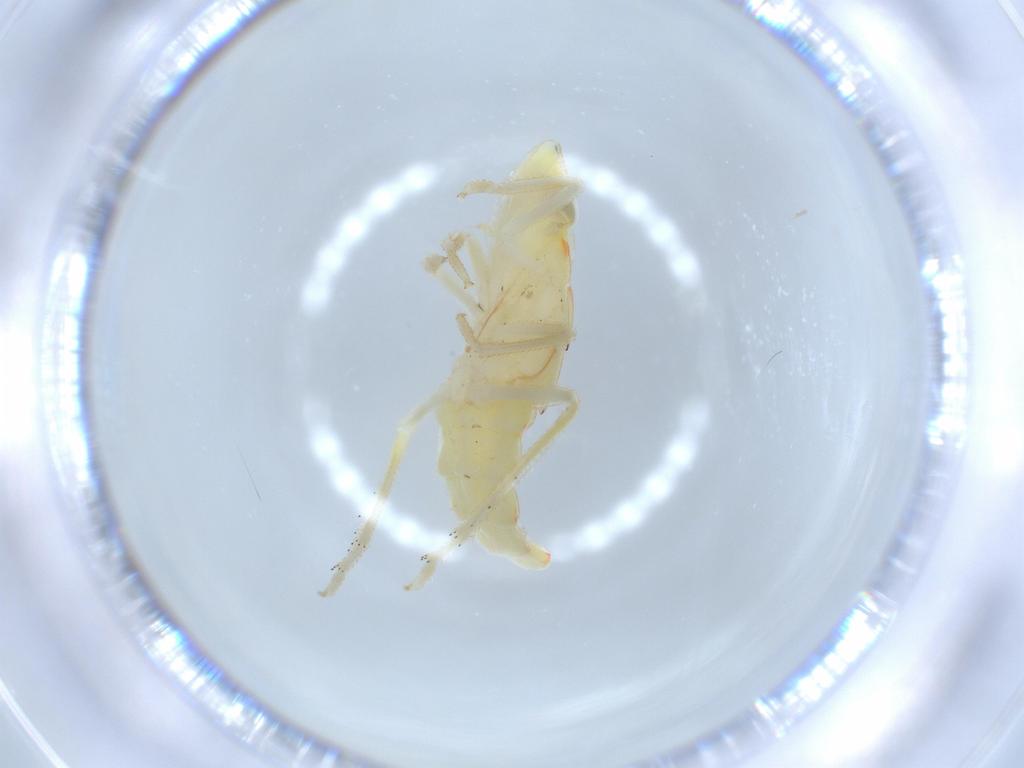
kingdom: Animalia
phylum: Arthropoda
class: Insecta
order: Hemiptera
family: Tropiduchidae
